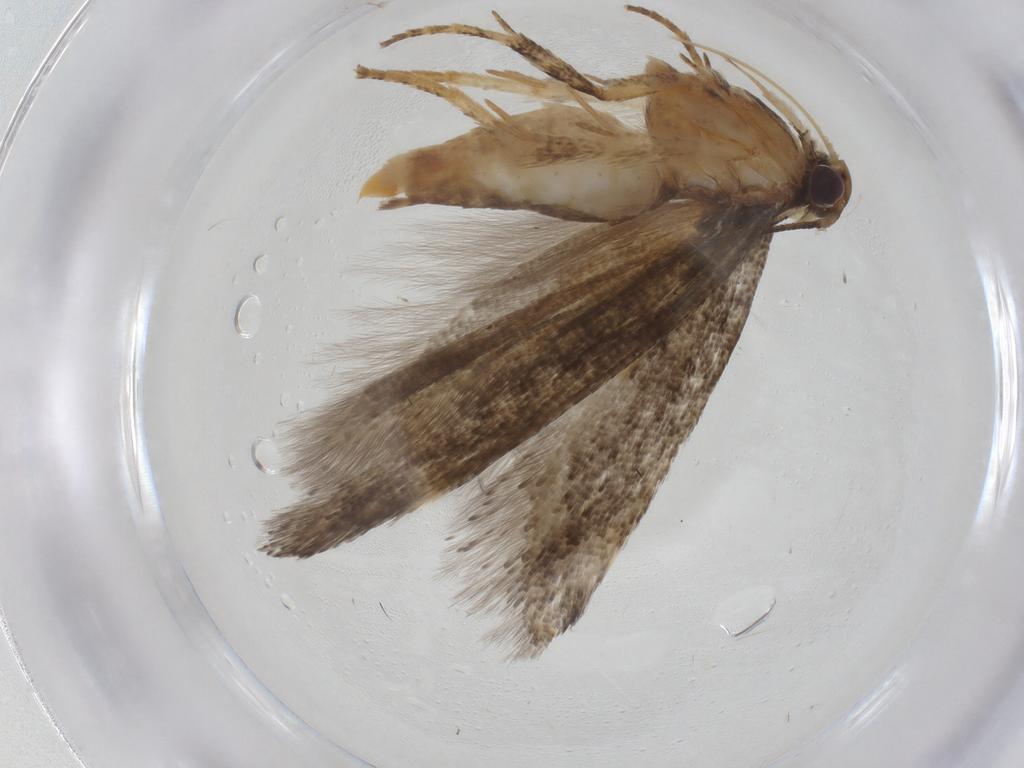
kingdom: Animalia
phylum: Arthropoda
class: Insecta
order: Lepidoptera
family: Gelechiidae
